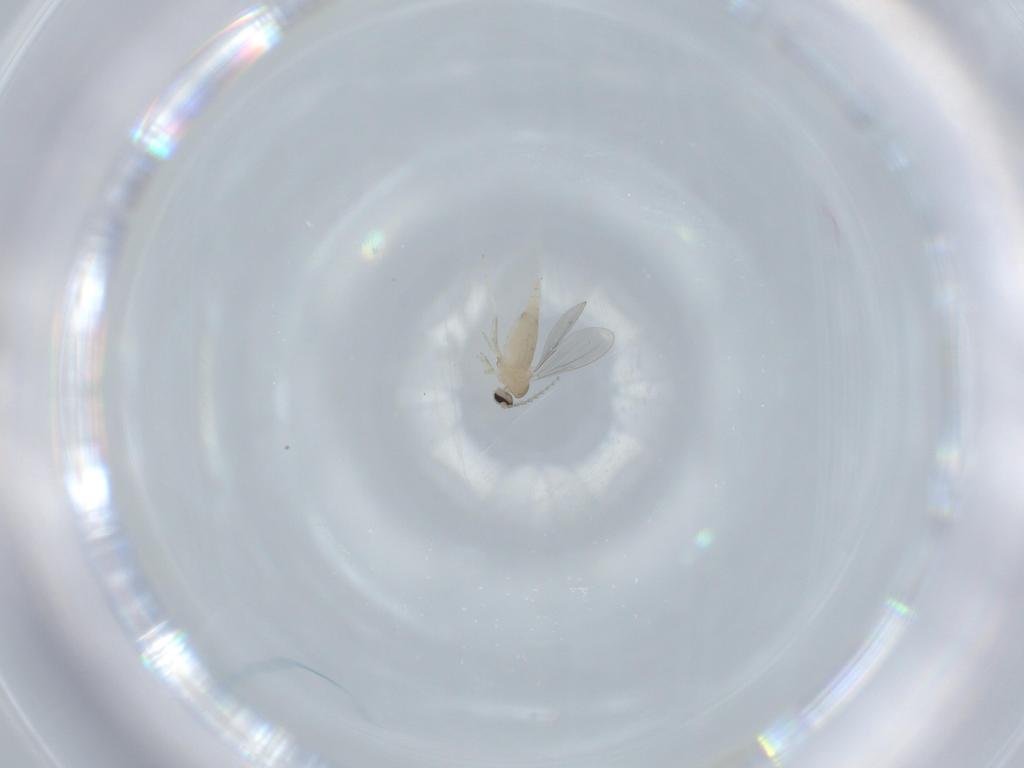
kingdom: Animalia
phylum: Arthropoda
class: Insecta
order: Diptera
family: Cecidomyiidae
